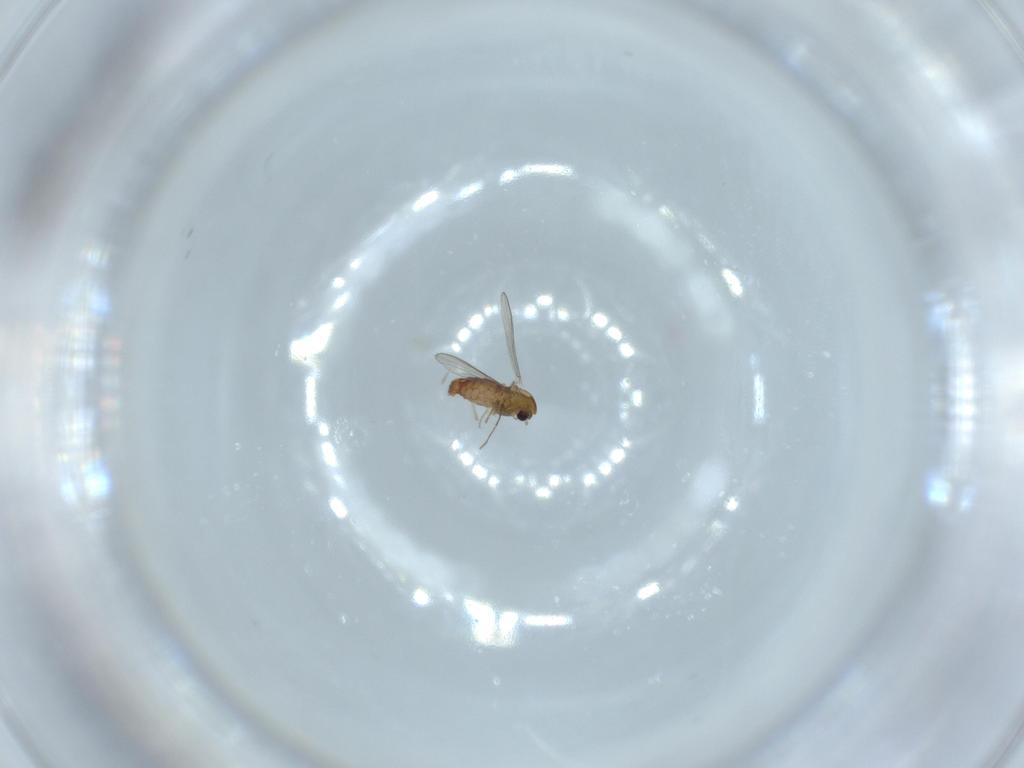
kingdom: Animalia
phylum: Arthropoda
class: Insecta
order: Diptera
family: Chironomidae
